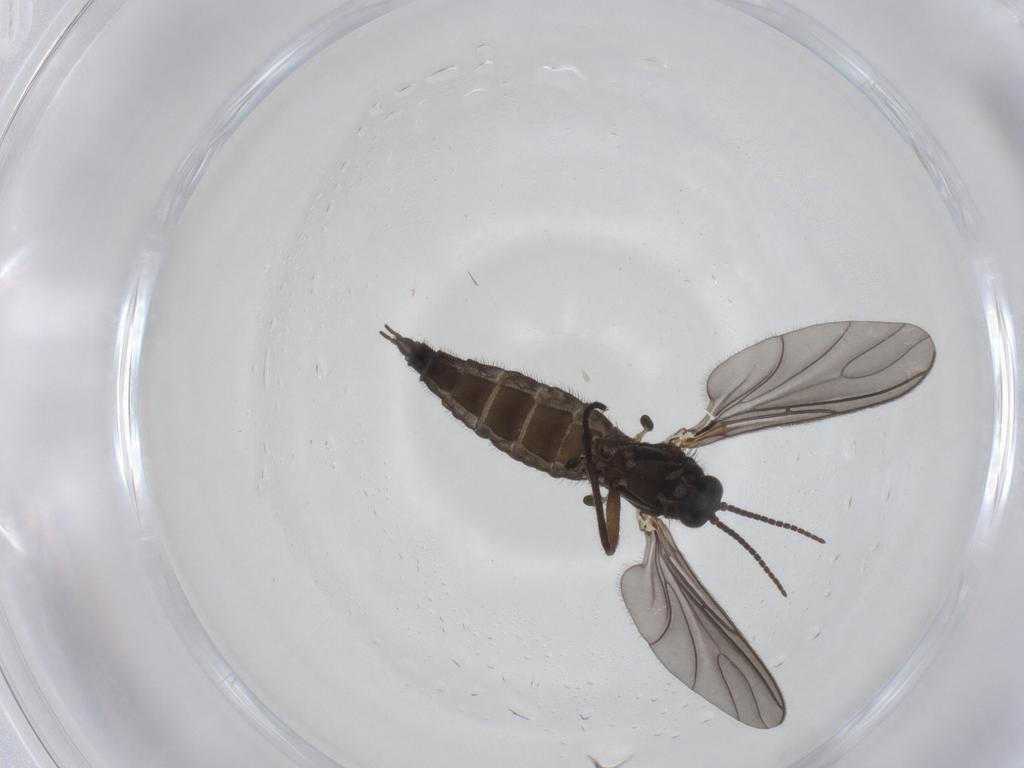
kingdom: Animalia
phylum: Arthropoda
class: Insecta
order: Diptera
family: Sciaridae
